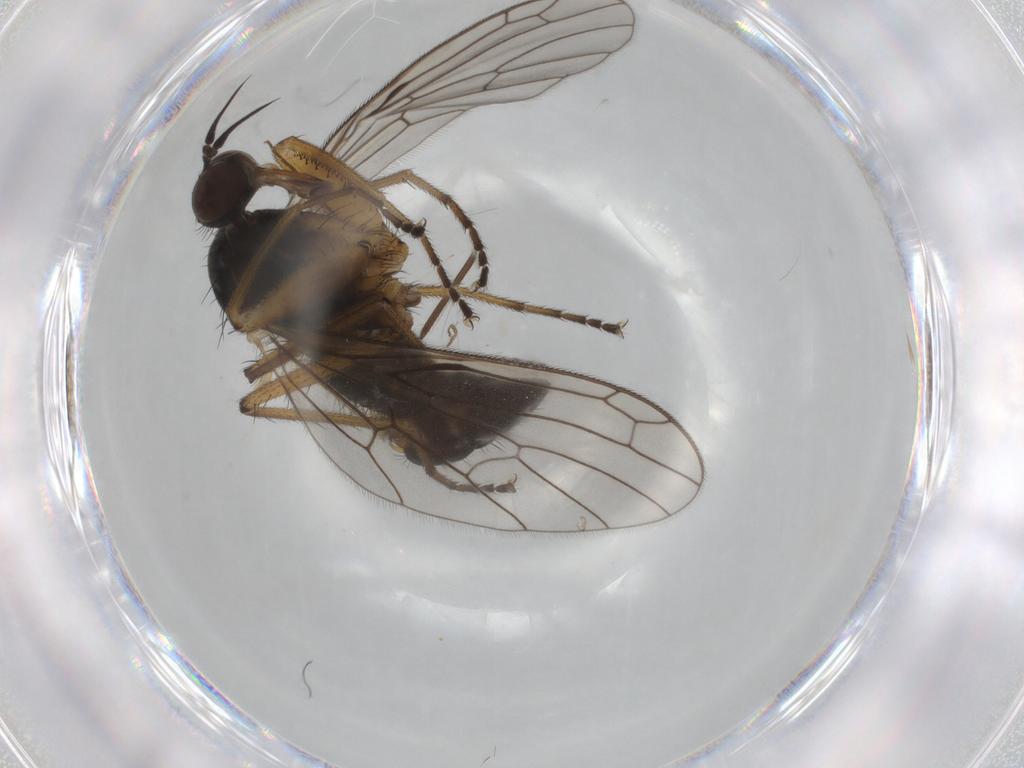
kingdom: Animalia
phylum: Arthropoda
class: Insecta
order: Diptera
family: Empididae
